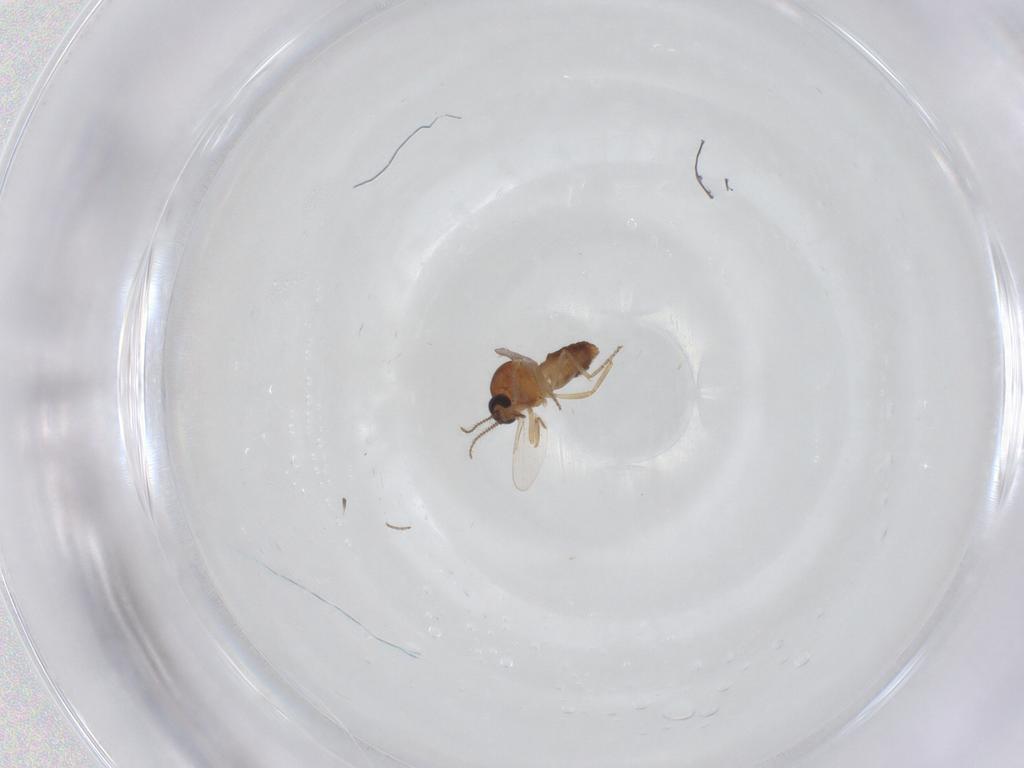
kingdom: Animalia
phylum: Arthropoda
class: Insecta
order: Diptera
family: Ceratopogonidae
